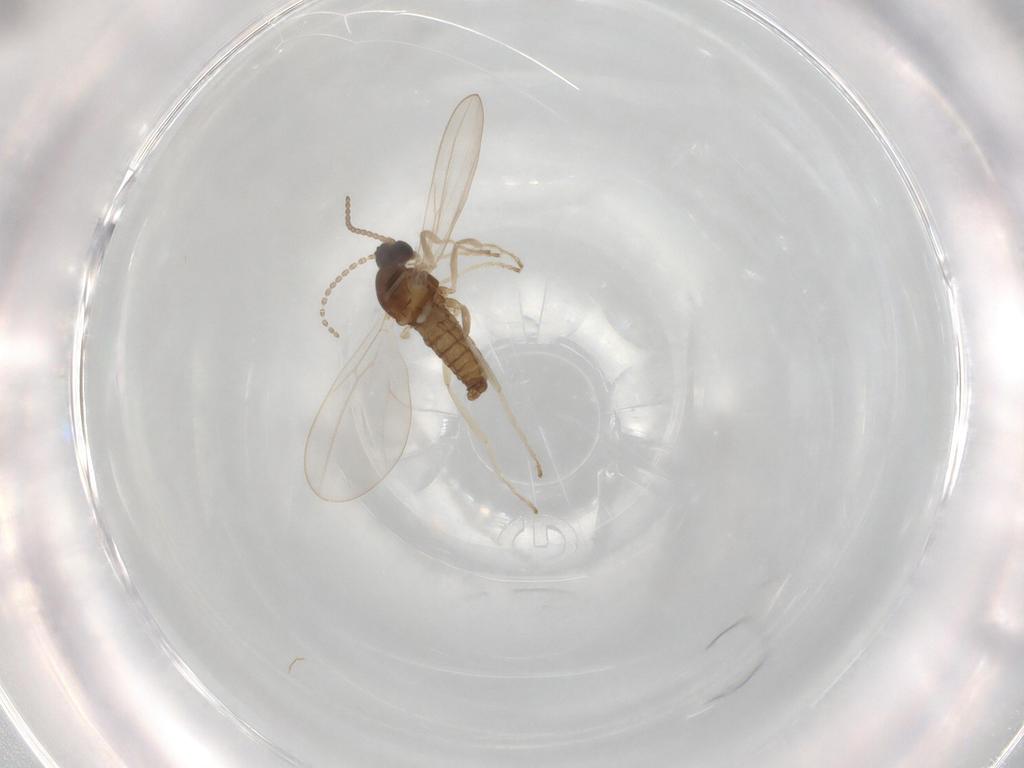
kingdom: Animalia
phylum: Arthropoda
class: Insecta
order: Diptera
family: Cecidomyiidae
